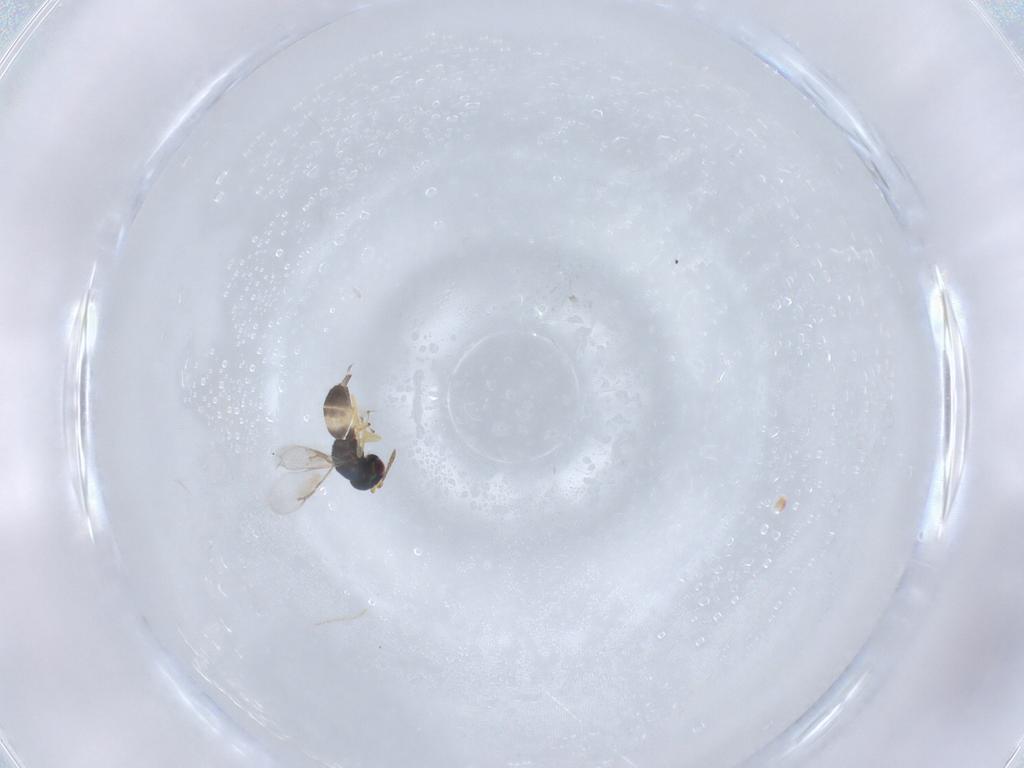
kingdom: Animalia
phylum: Arthropoda
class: Insecta
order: Hymenoptera
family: Pteromalidae
